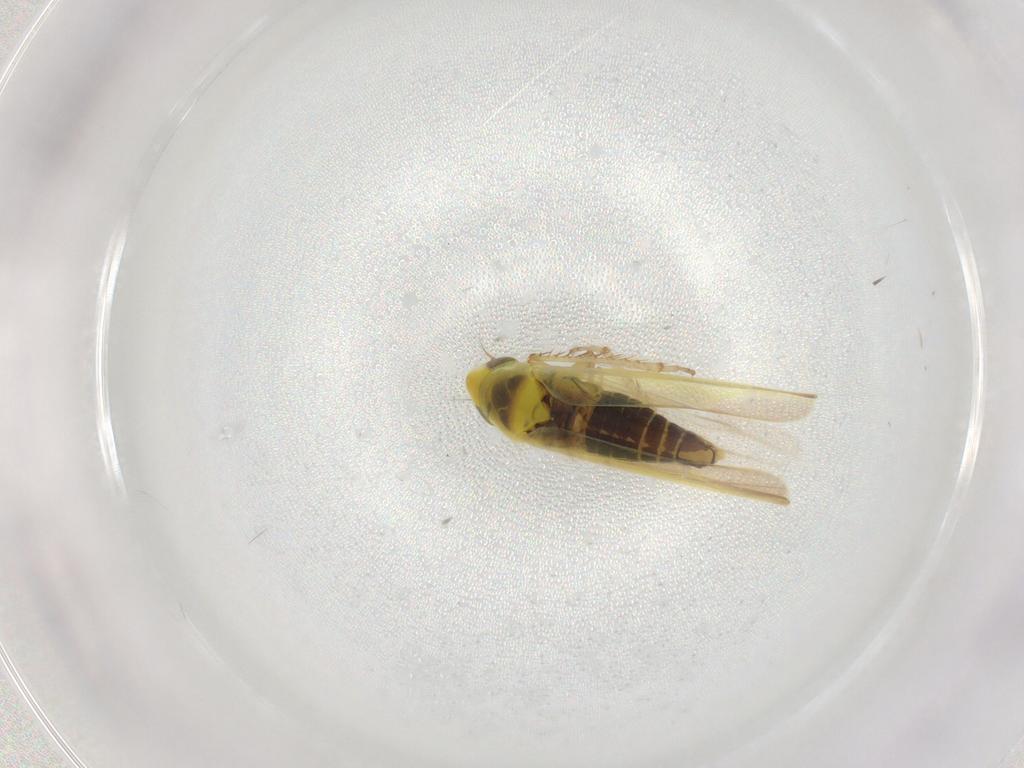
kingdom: Animalia
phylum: Arthropoda
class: Insecta
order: Hemiptera
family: Cicadellidae
